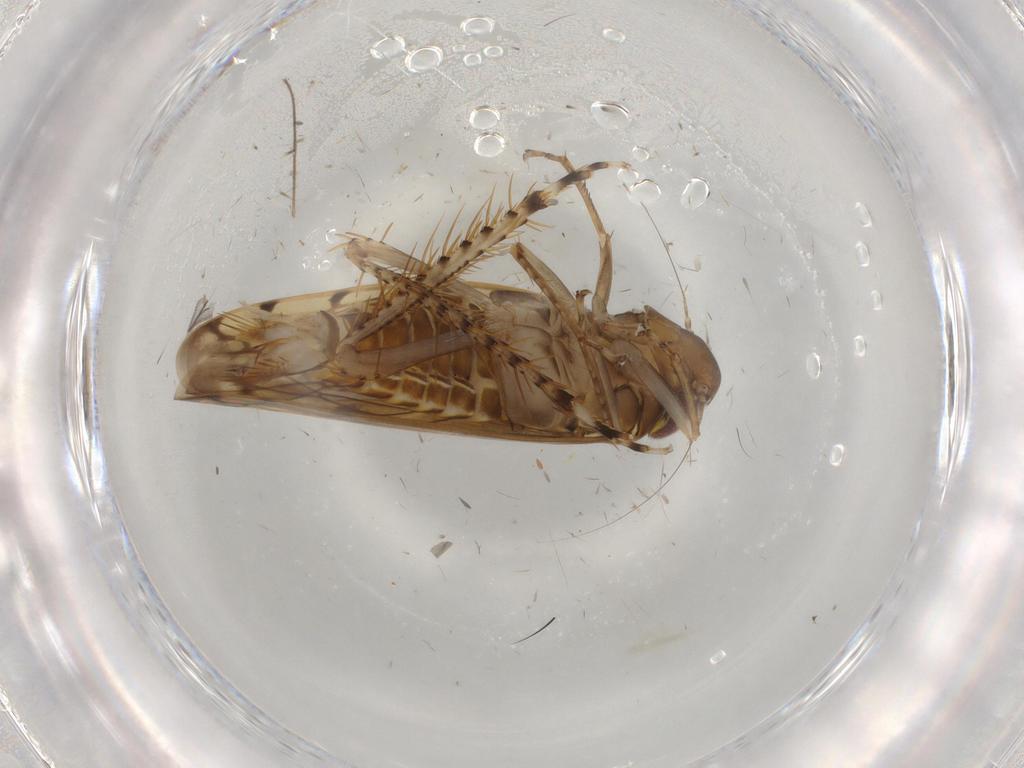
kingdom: Animalia
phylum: Arthropoda
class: Insecta
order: Hemiptera
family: Cicadellidae
